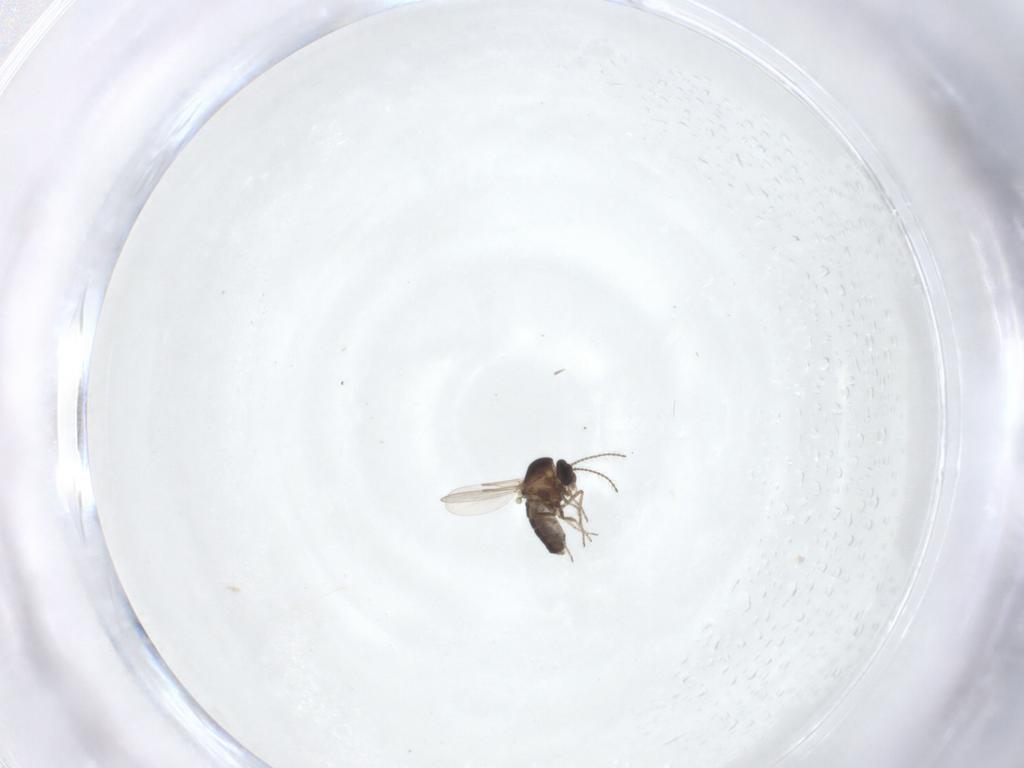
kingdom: Animalia
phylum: Arthropoda
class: Insecta
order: Diptera
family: Ceratopogonidae
